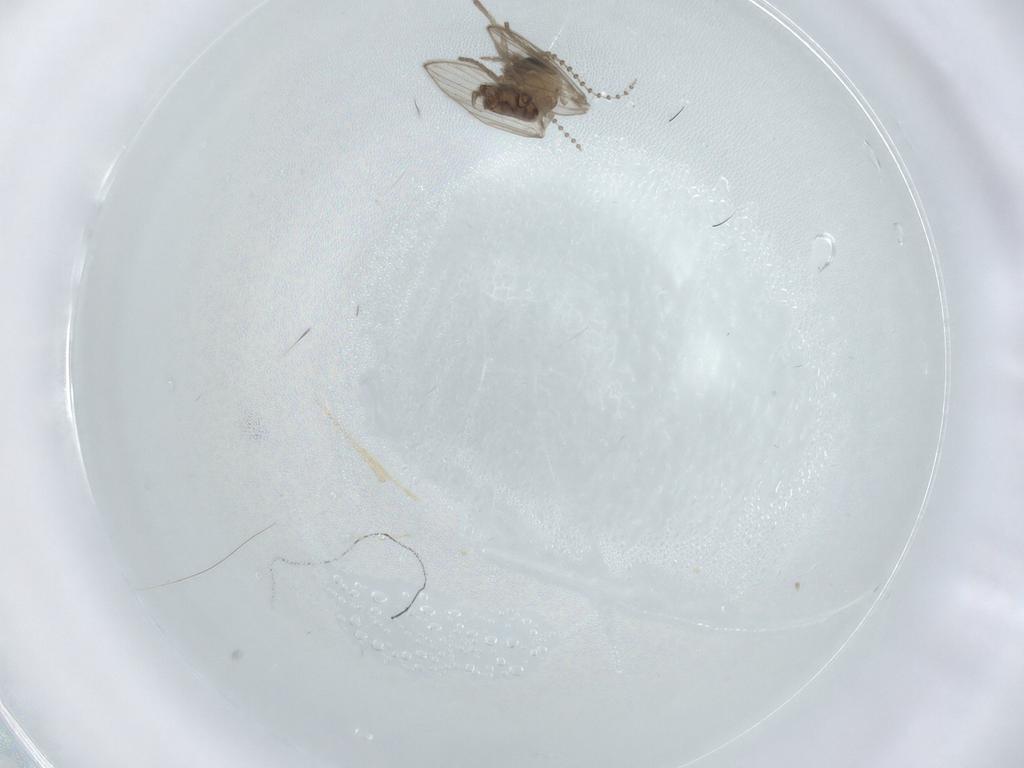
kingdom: Animalia
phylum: Arthropoda
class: Insecta
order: Diptera
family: Psychodidae
